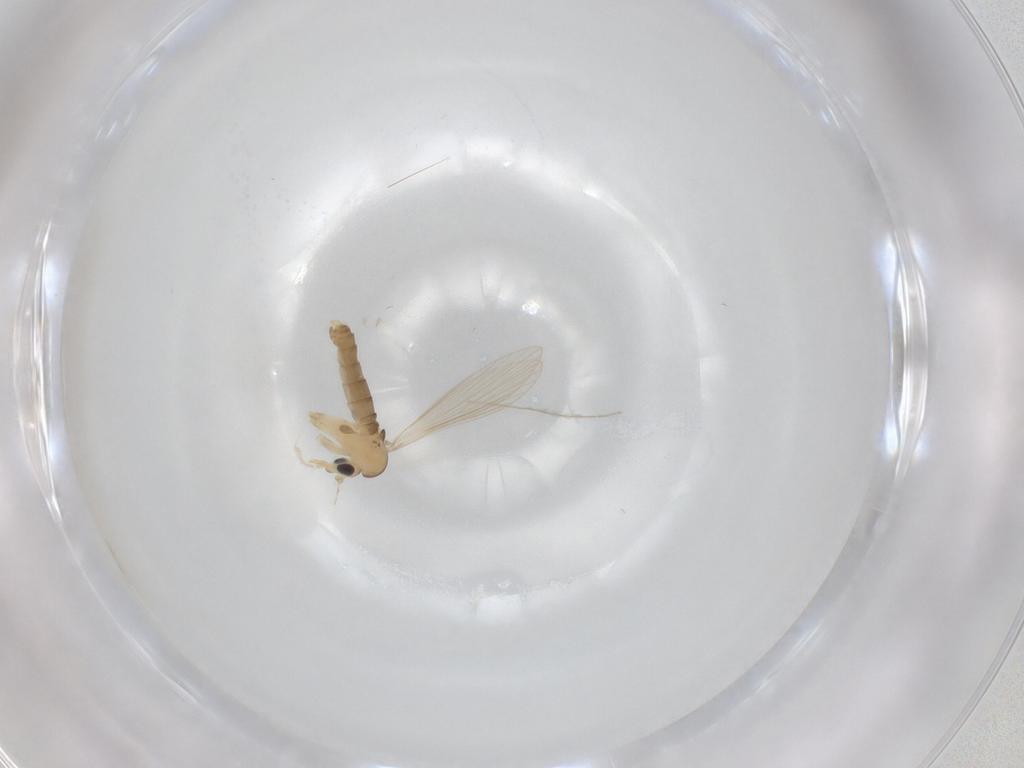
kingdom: Animalia
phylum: Arthropoda
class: Insecta
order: Diptera
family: Psychodidae
